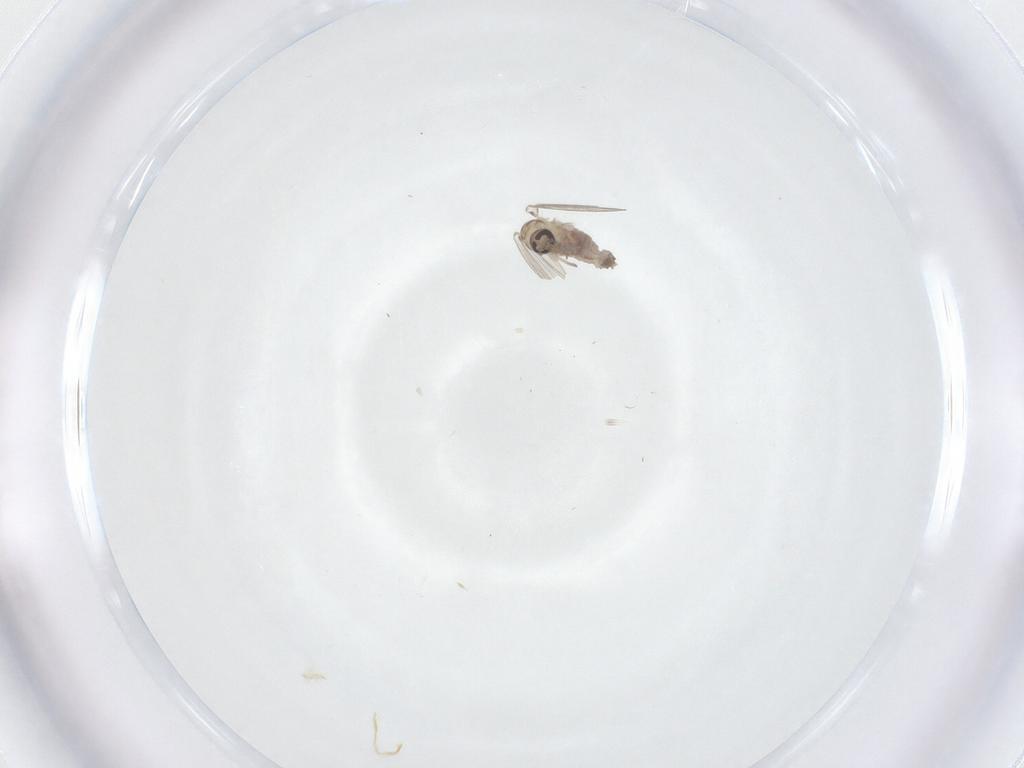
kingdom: Animalia
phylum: Arthropoda
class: Insecta
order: Diptera
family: Psychodidae
